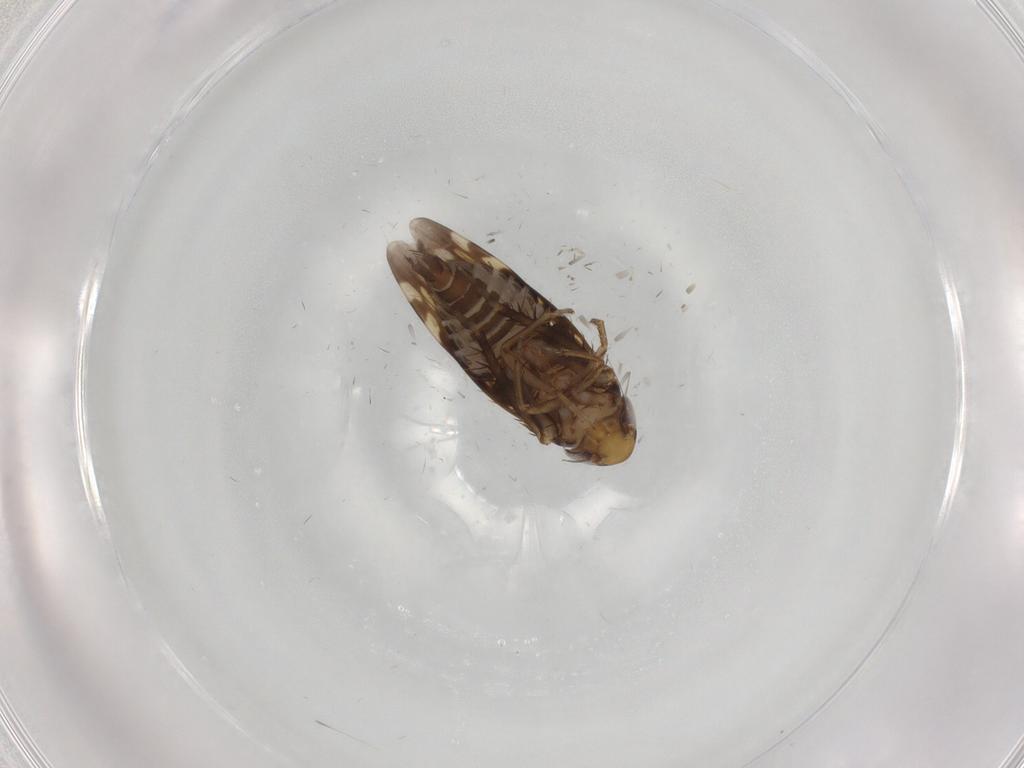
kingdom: Animalia
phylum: Arthropoda
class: Insecta
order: Hemiptera
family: Cicadellidae
